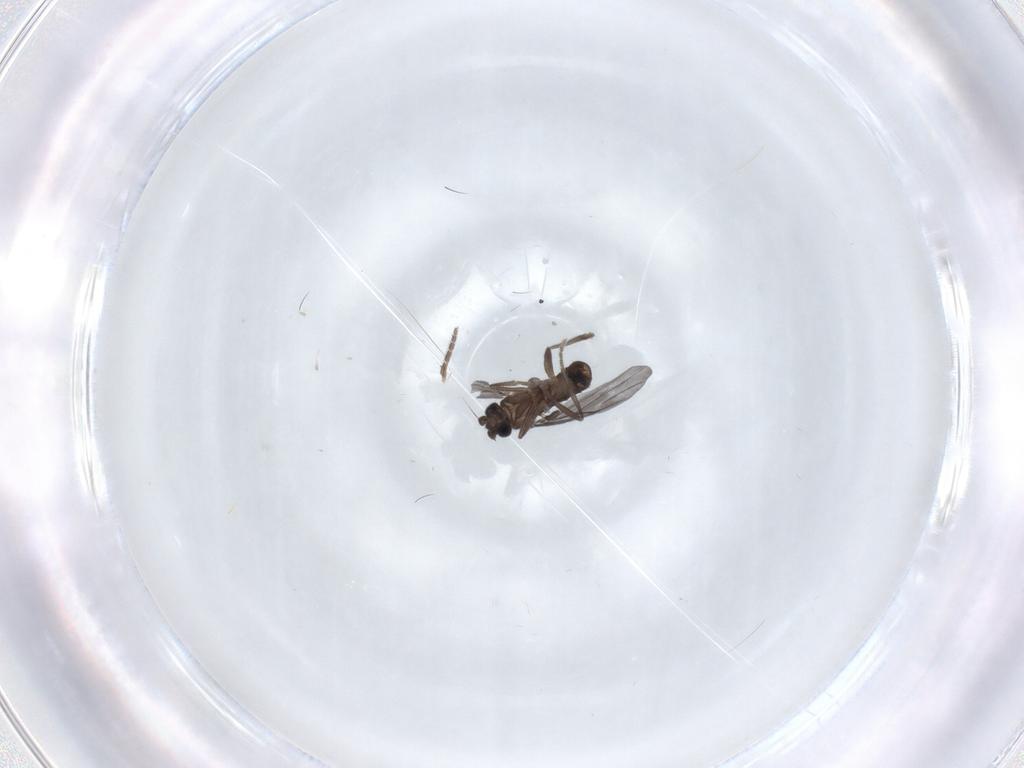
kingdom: Animalia
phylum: Arthropoda
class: Insecta
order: Diptera
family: Phoridae
